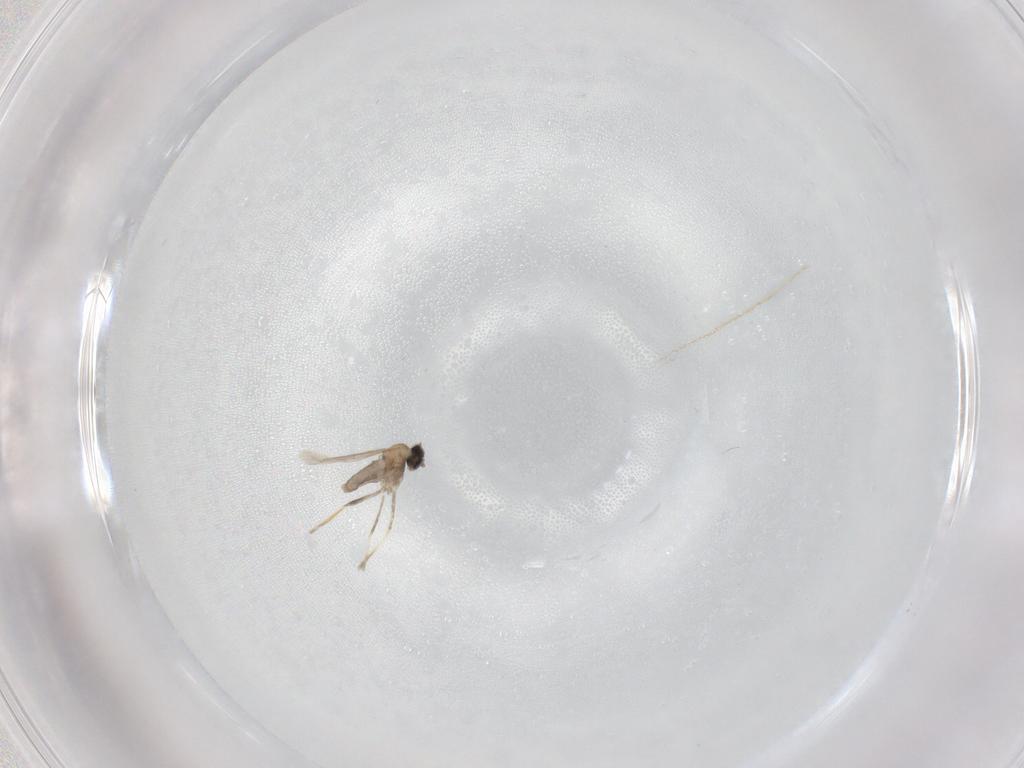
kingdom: Animalia
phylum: Arthropoda
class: Insecta
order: Diptera
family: Cecidomyiidae
